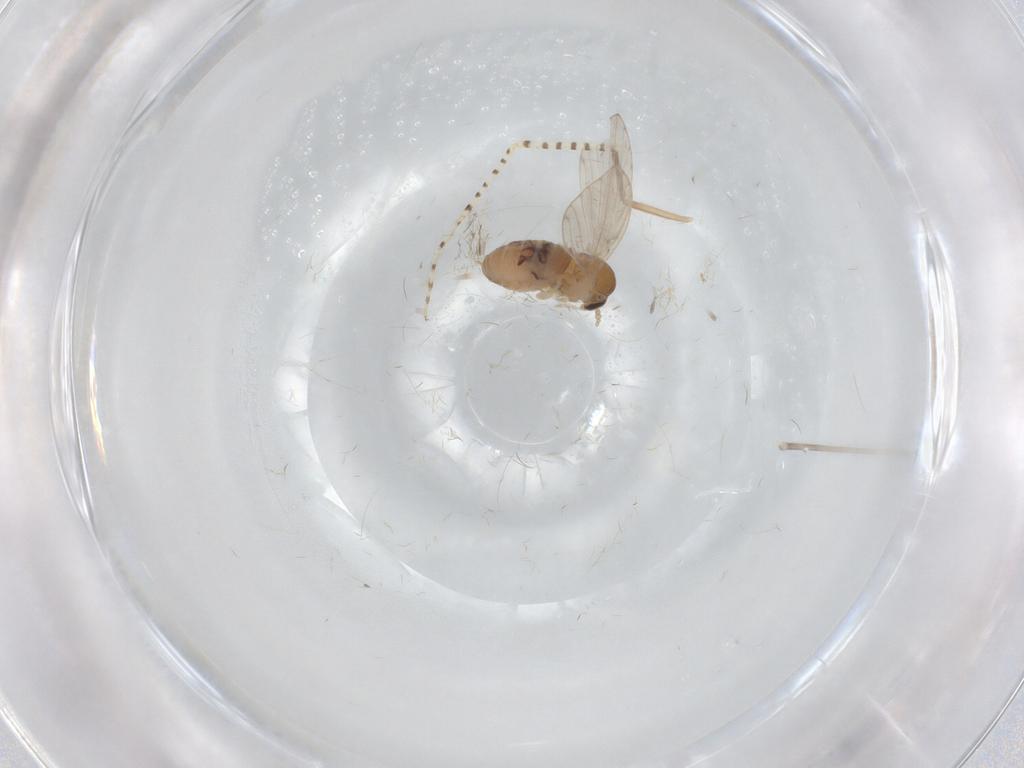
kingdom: Animalia
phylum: Arthropoda
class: Insecta
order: Diptera
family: Psychodidae
